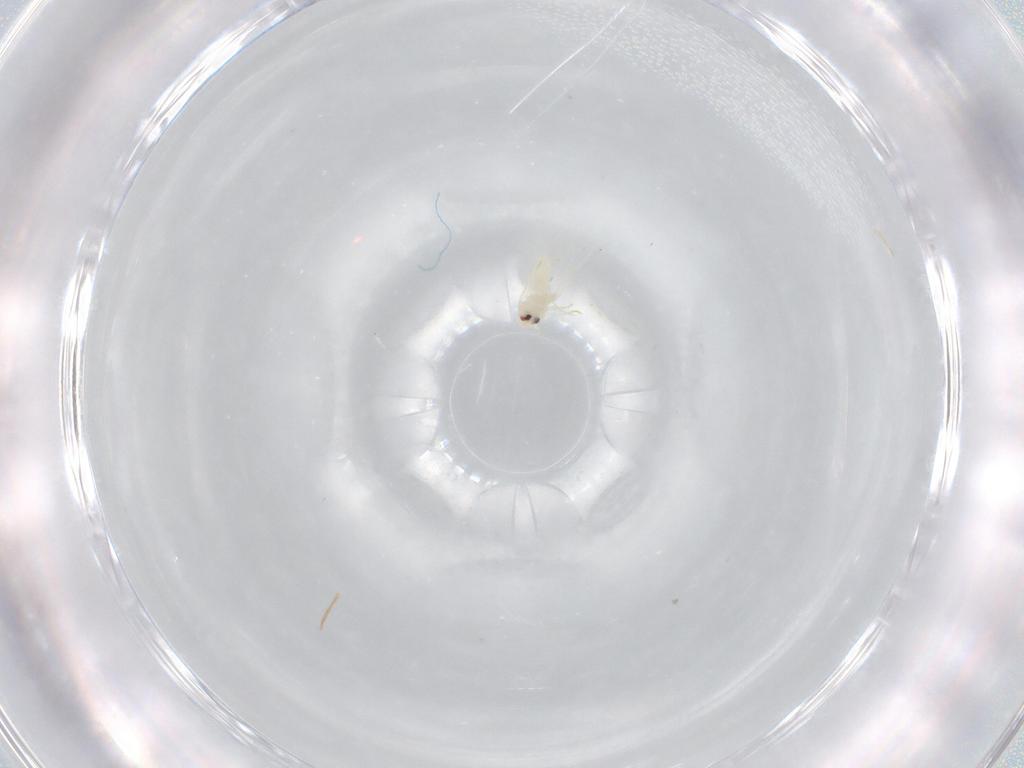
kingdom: Animalia
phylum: Arthropoda
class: Insecta
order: Hemiptera
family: Aleyrodidae
